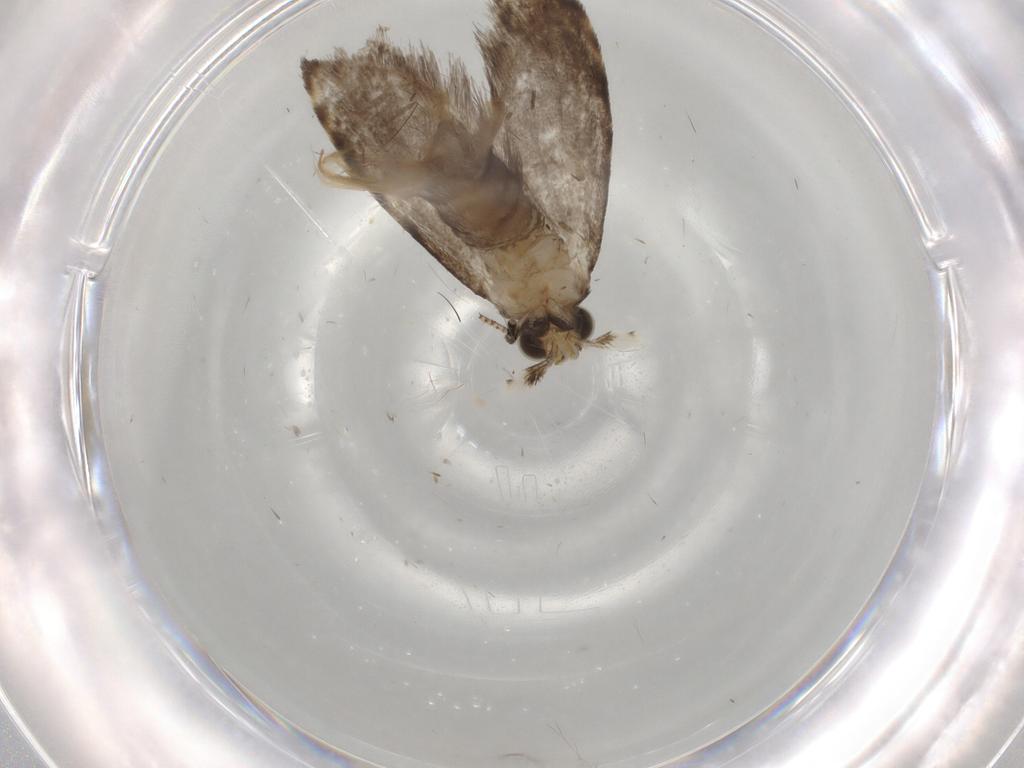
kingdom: Animalia
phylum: Arthropoda
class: Insecta
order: Lepidoptera
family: Tineidae
